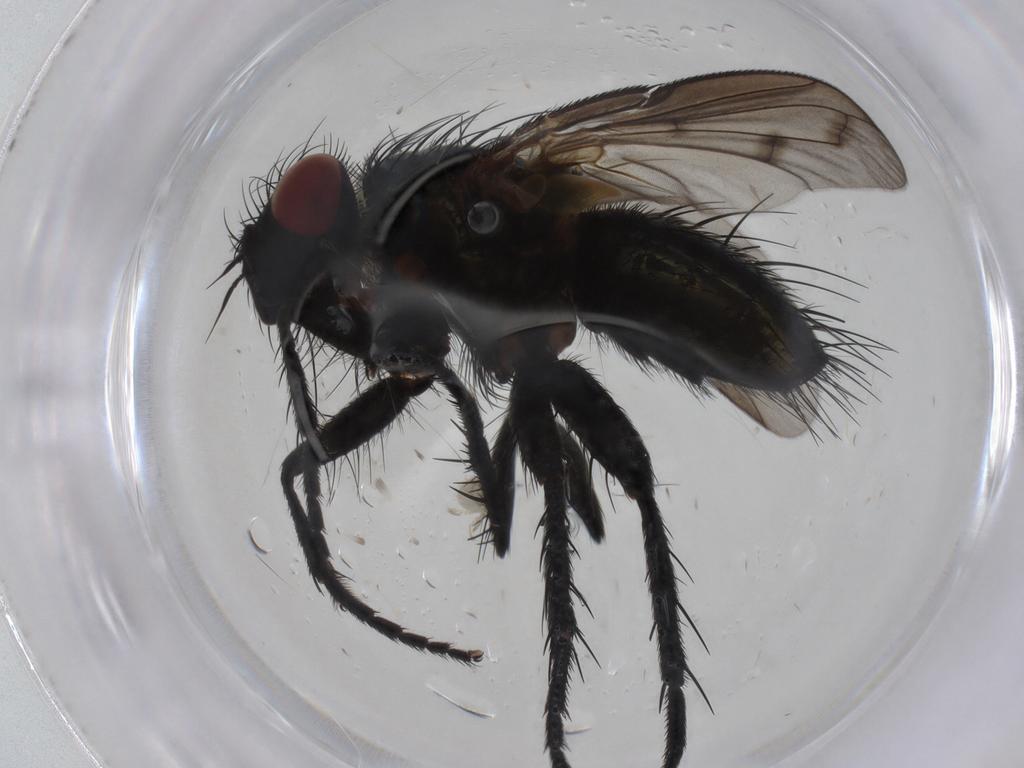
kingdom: Animalia
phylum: Arthropoda
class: Insecta
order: Diptera
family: Tachinidae
